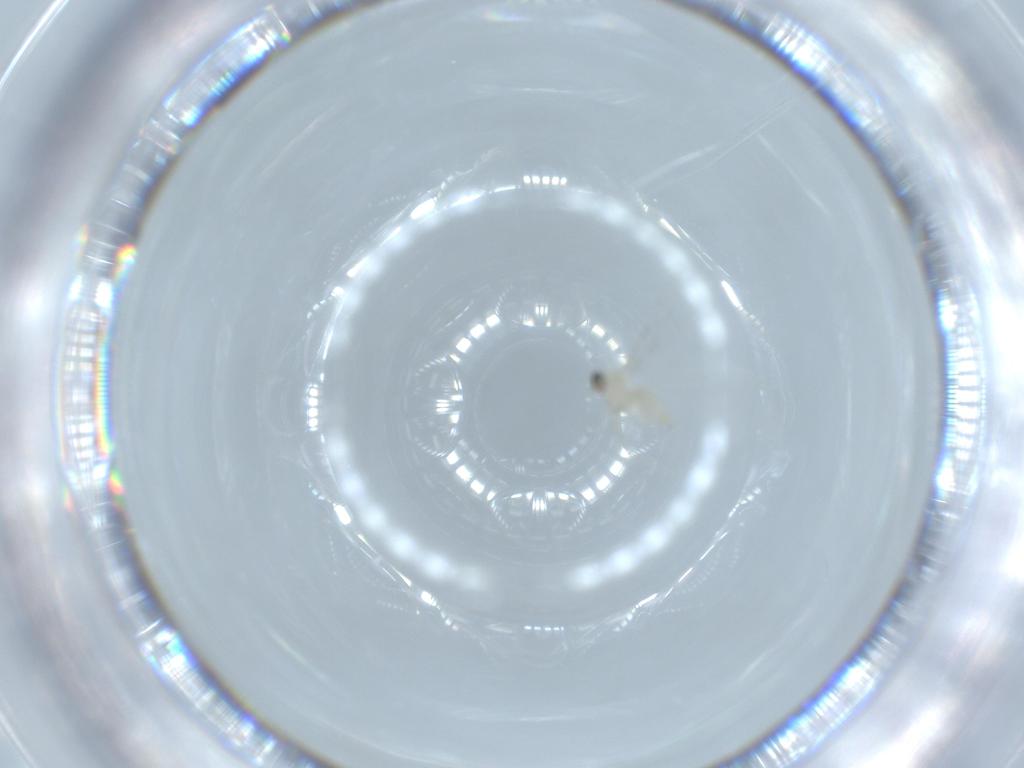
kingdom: Animalia
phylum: Arthropoda
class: Insecta
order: Diptera
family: Cecidomyiidae
